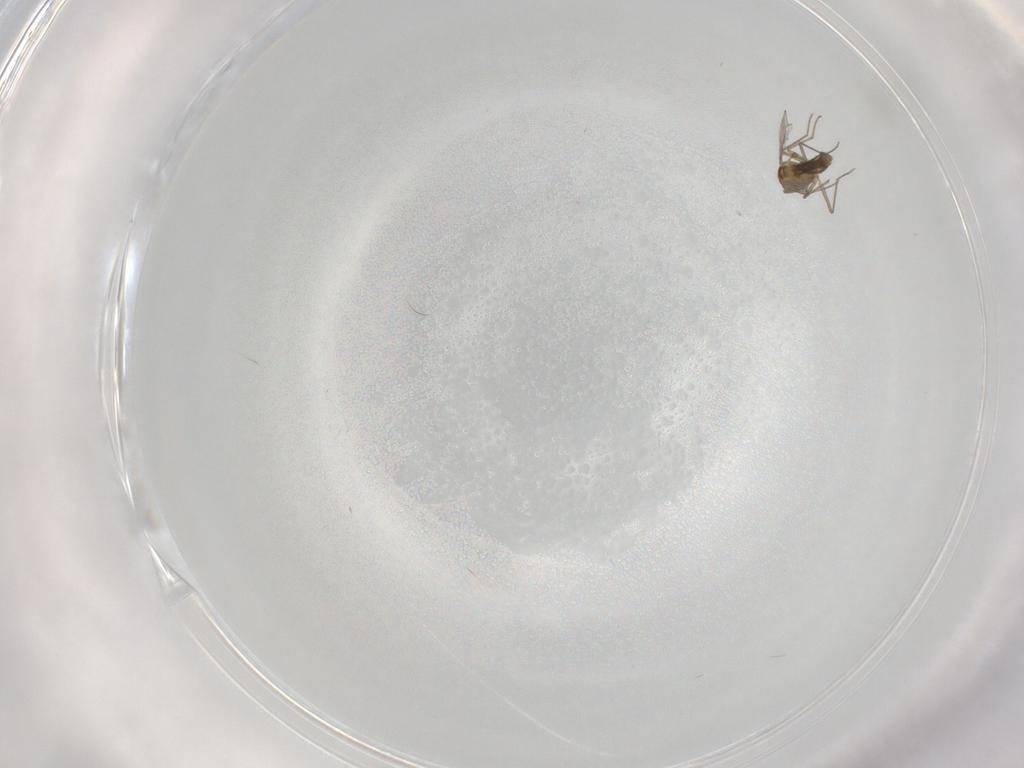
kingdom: Animalia
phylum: Arthropoda
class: Insecta
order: Diptera
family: Chironomidae
